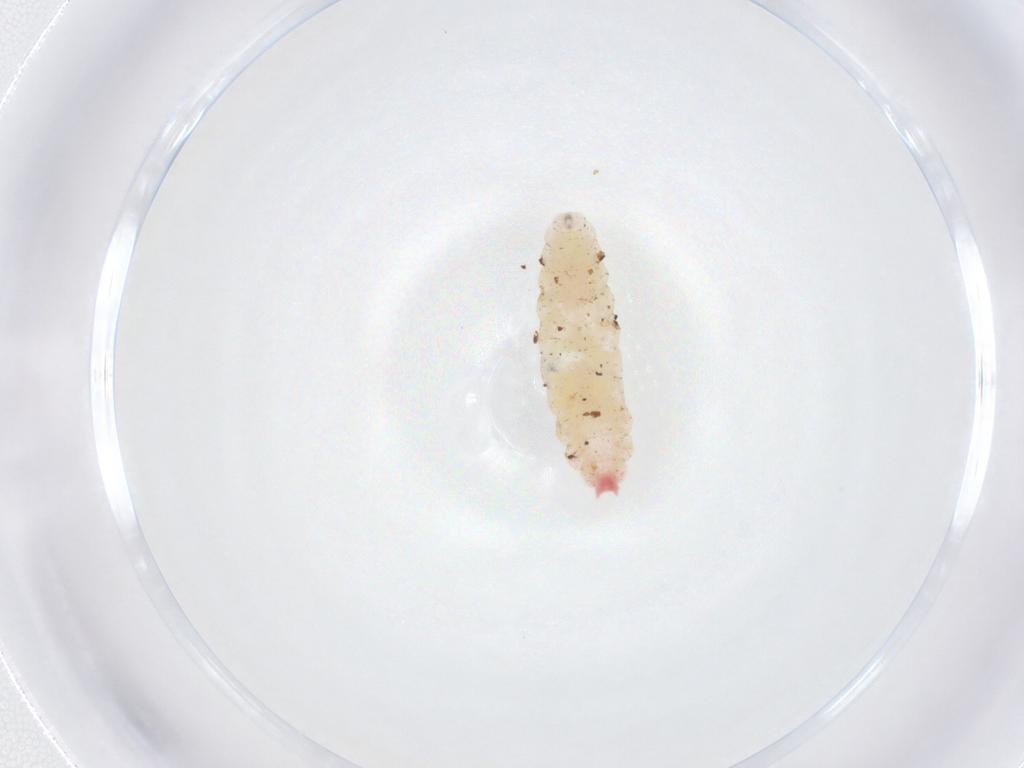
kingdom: Animalia
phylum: Arthropoda
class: Insecta
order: Diptera
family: Cecidomyiidae
